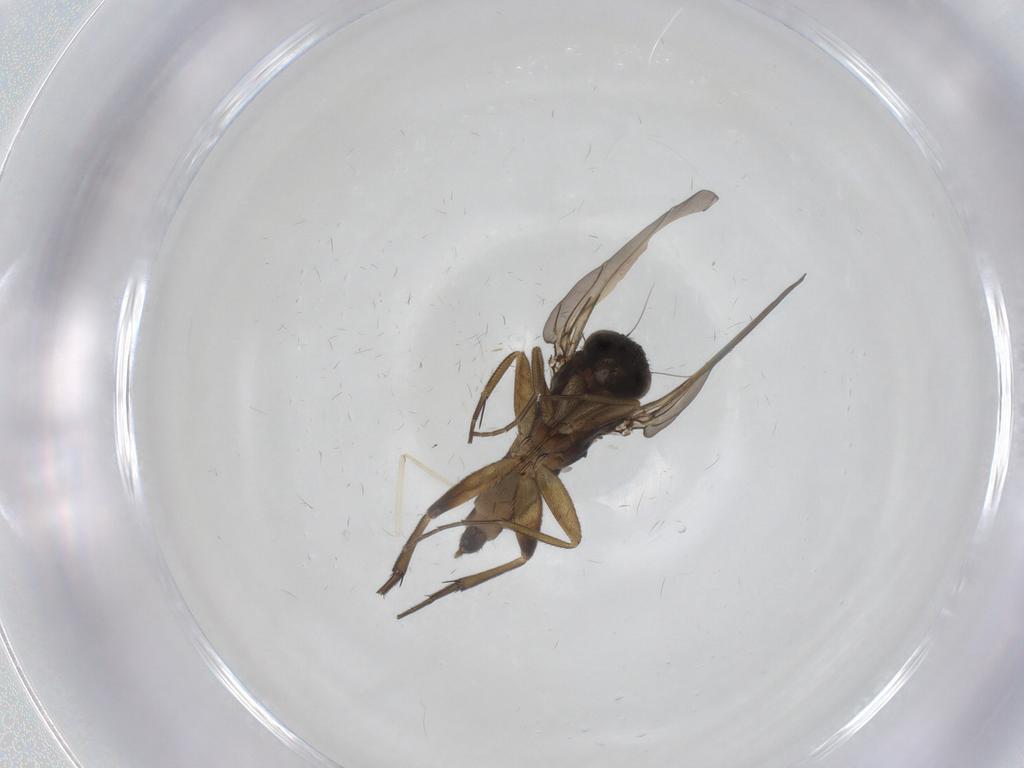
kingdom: Animalia
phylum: Arthropoda
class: Insecta
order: Diptera
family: Phoridae
